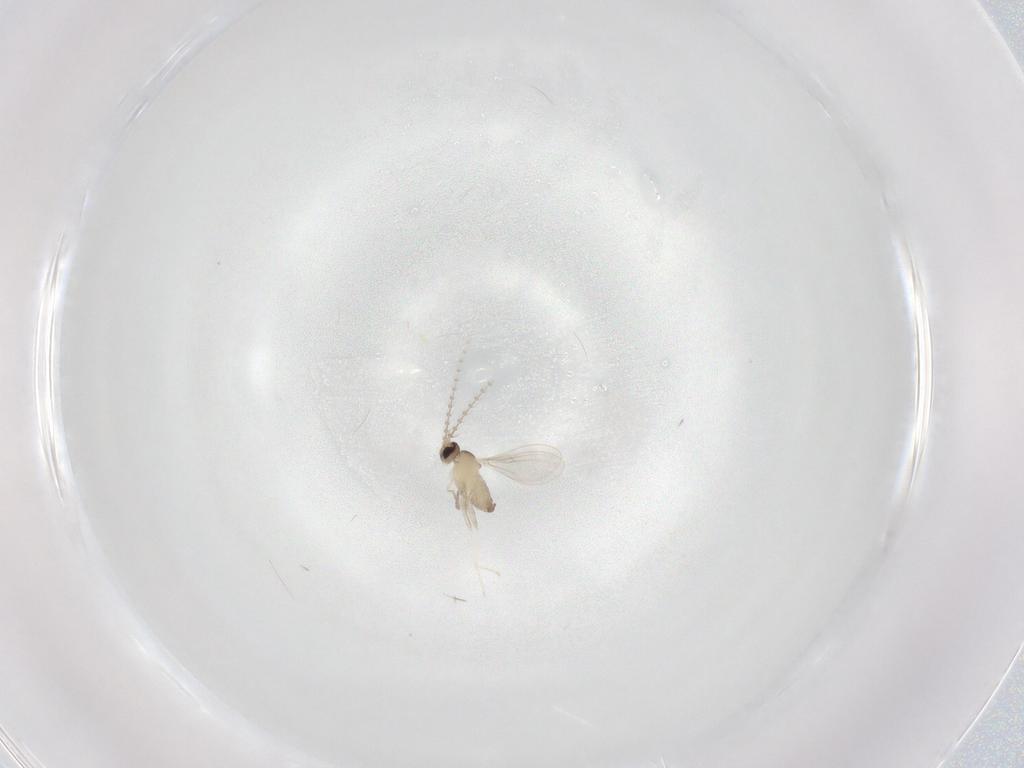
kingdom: Animalia
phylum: Arthropoda
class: Insecta
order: Diptera
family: Cecidomyiidae
